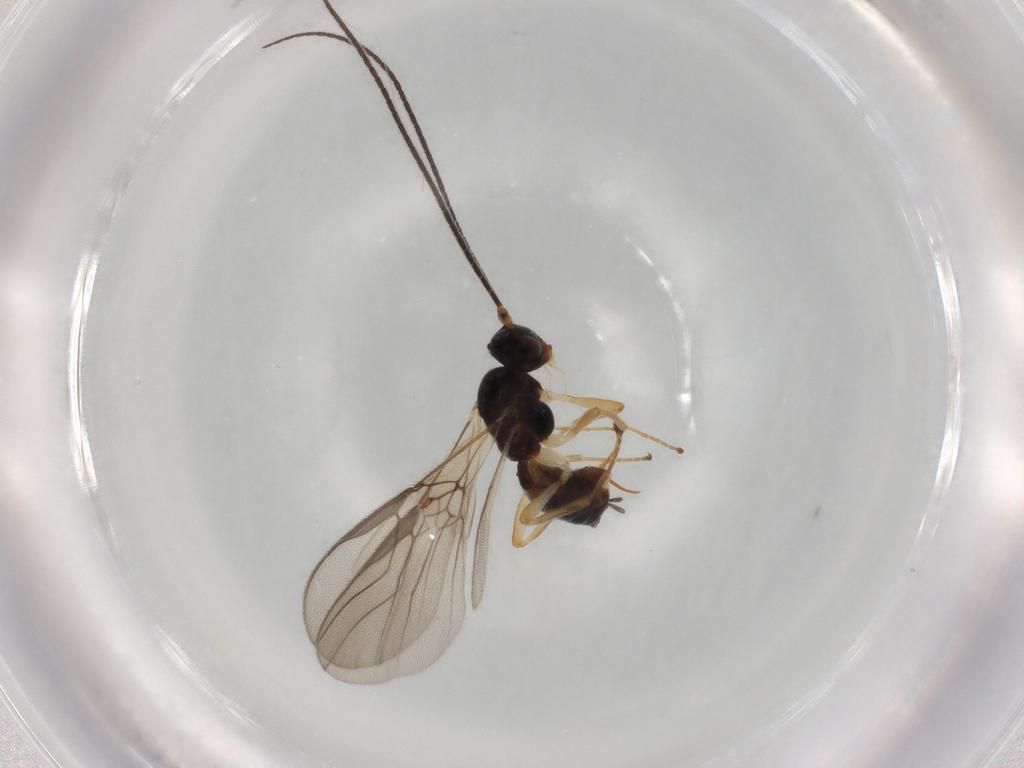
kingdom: Animalia
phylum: Arthropoda
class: Insecta
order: Hymenoptera
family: Braconidae
